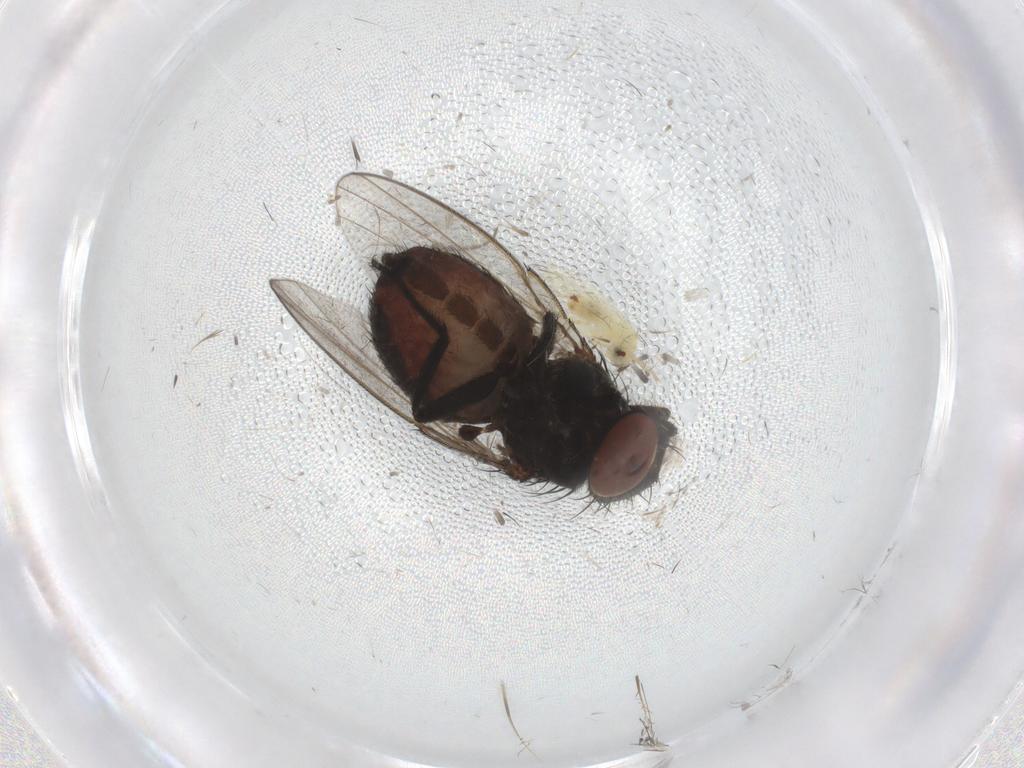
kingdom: Animalia
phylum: Arthropoda
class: Insecta
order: Diptera
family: Milichiidae
